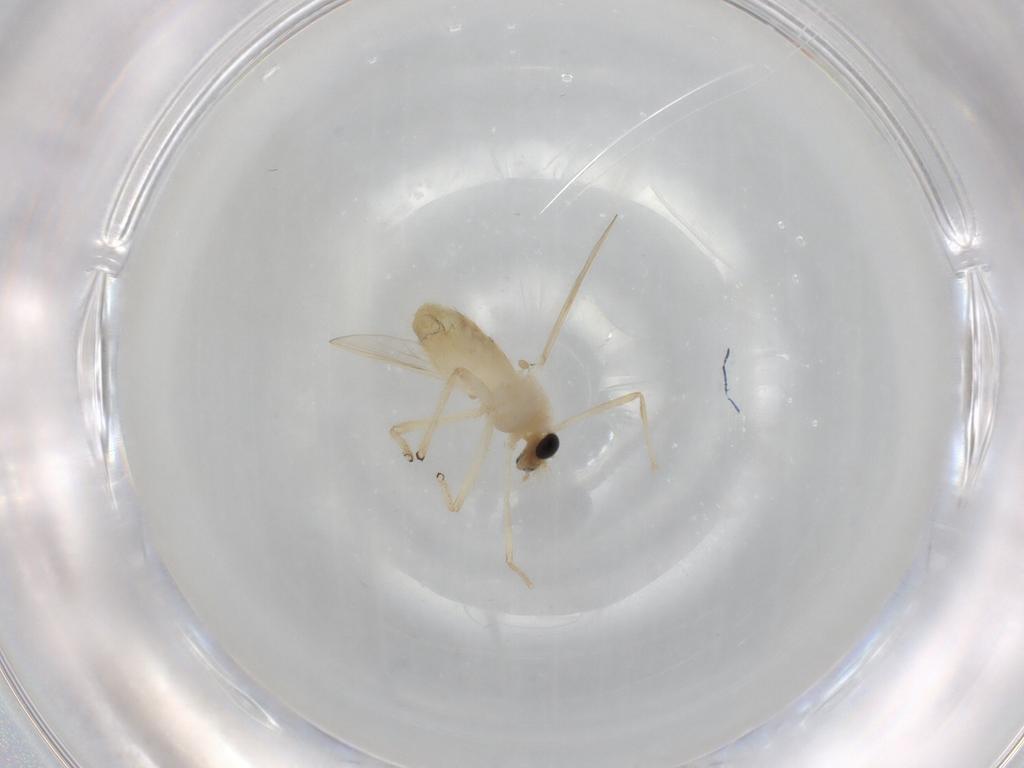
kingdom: Animalia
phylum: Arthropoda
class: Insecta
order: Diptera
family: Chironomidae
